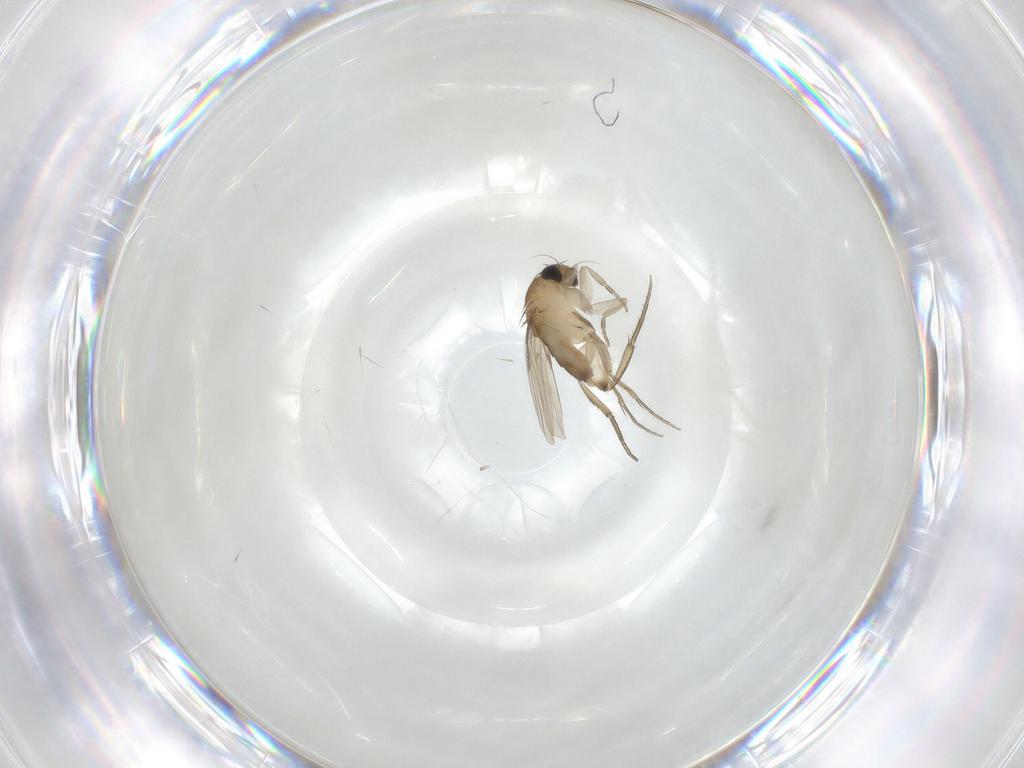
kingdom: Animalia
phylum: Arthropoda
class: Insecta
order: Diptera
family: Phoridae
